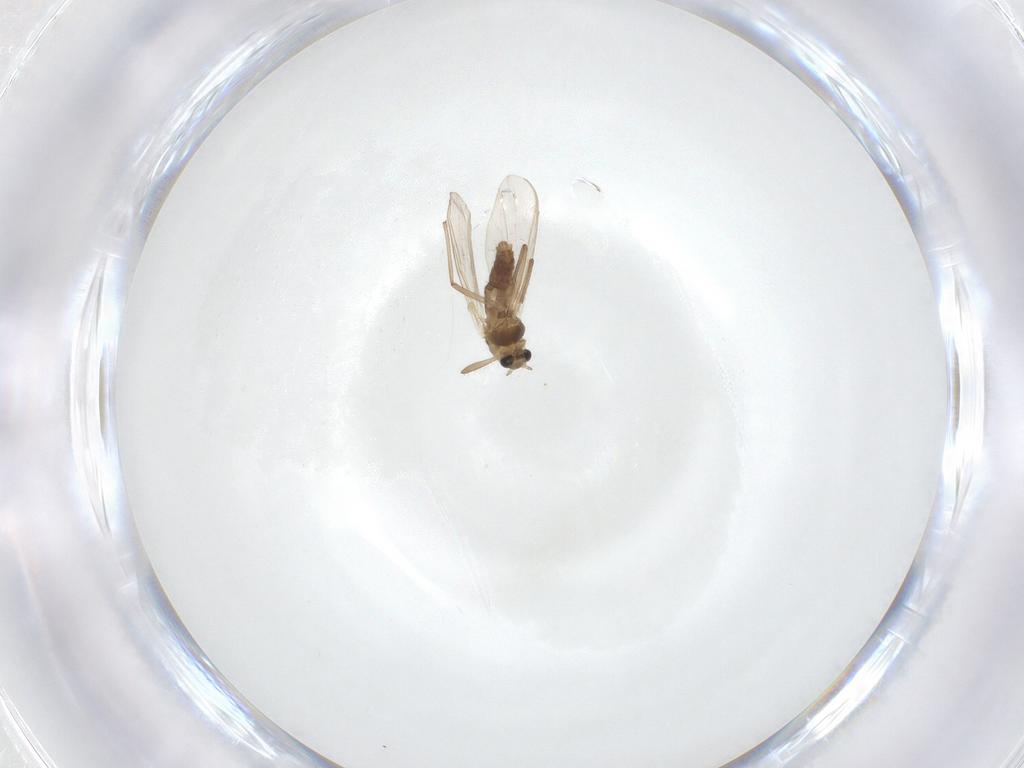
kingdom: Animalia
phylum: Arthropoda
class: Insecta
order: Diptera
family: Chironomidae
